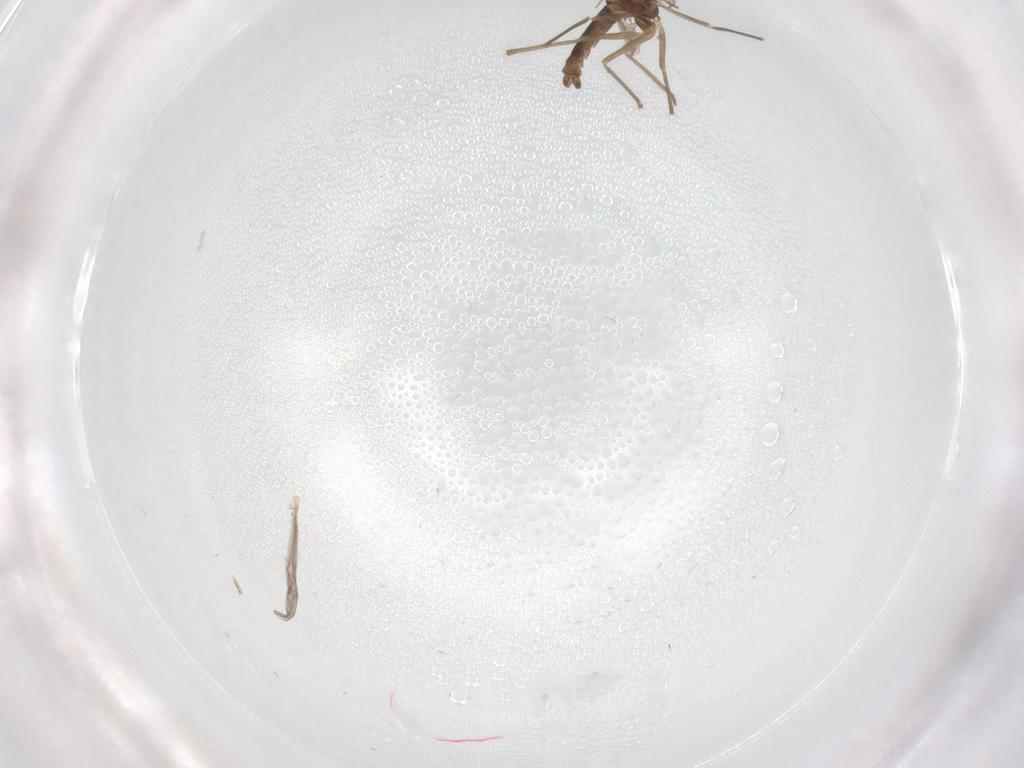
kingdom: Animalia
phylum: Arthropoda
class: Insecta
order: Diptera
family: Chironomidae
